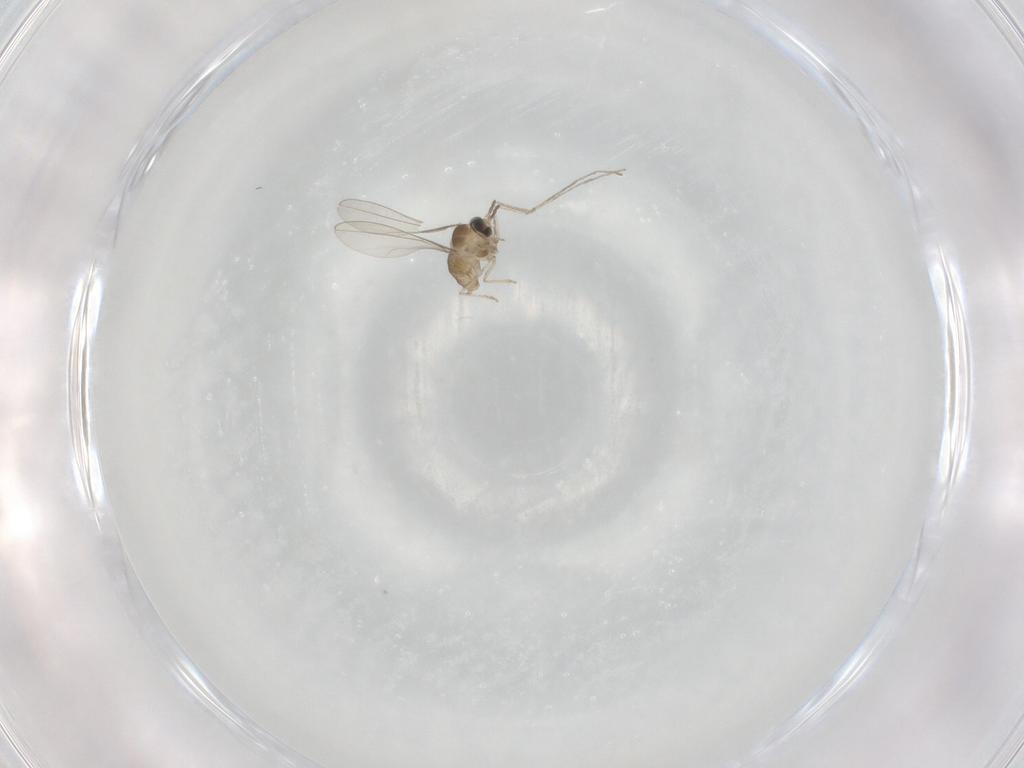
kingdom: Animalia
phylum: Arthropoda
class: Insecta
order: Diptera
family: Cecidomyiidae
